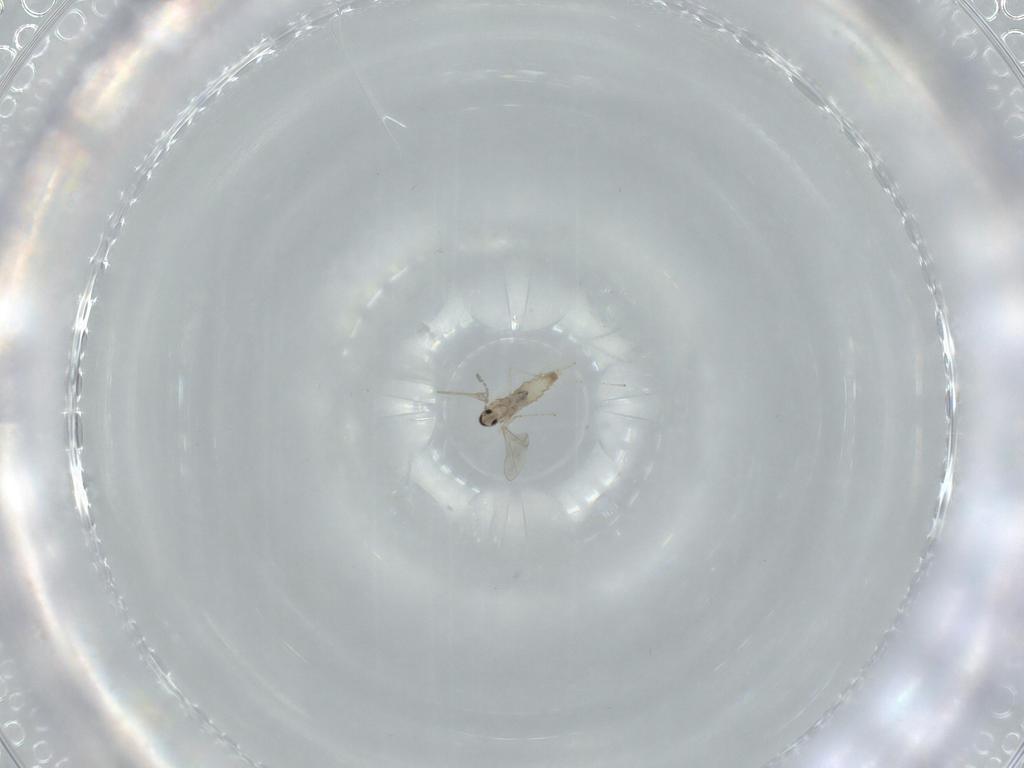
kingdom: Animalia
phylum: Arthropoda
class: Insecta
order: Diptera
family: Cecidomyiidae
